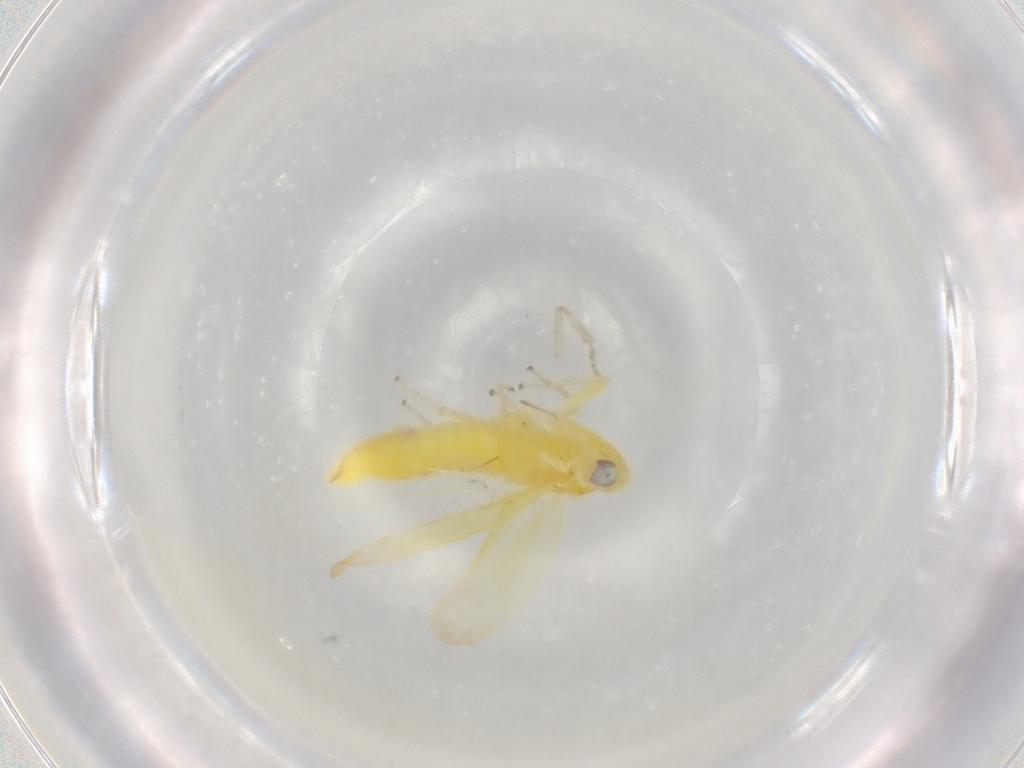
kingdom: Animalia
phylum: Arthropoda
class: Insecta
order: Hemiptera
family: Cicadellidae
